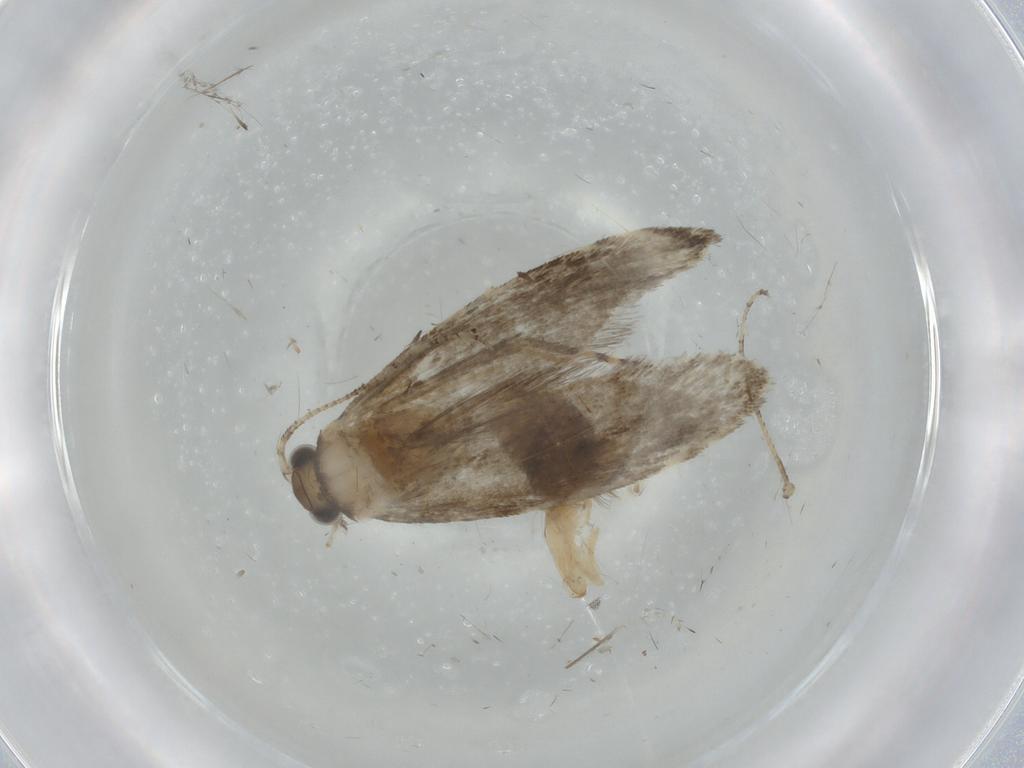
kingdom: Animalia
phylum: Arthropoda
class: Insecta
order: Lepidoptera
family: Tineidae
